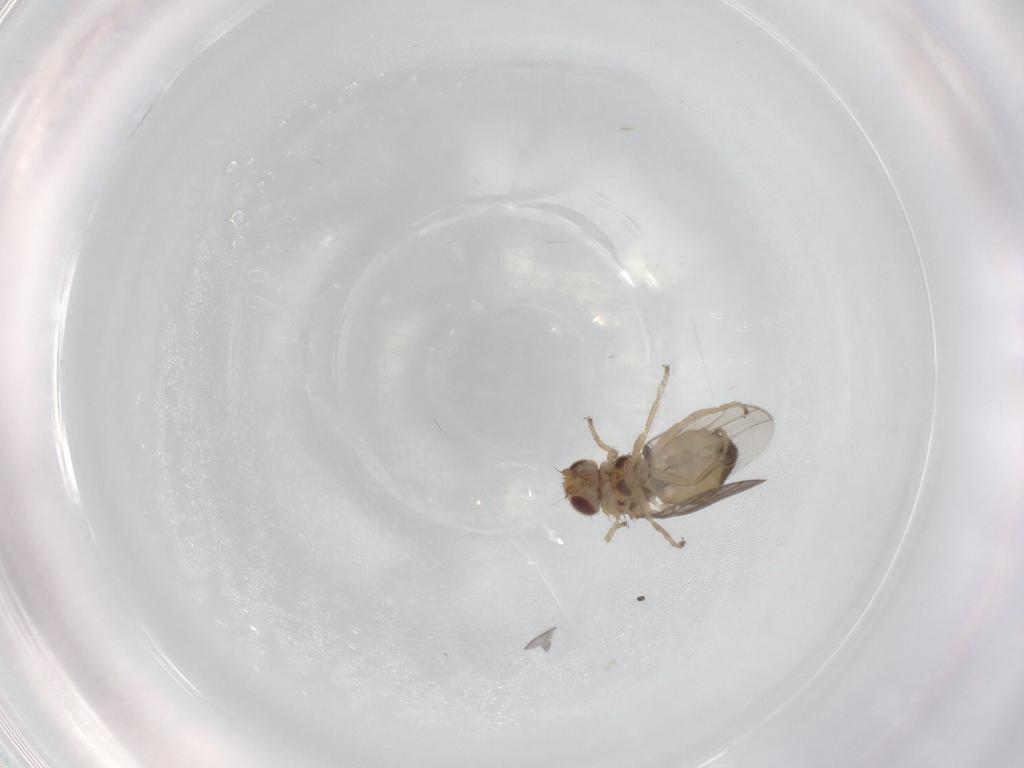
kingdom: Animalia
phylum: Arthropoda
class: Insecta
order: Diptera
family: Chloropidae
